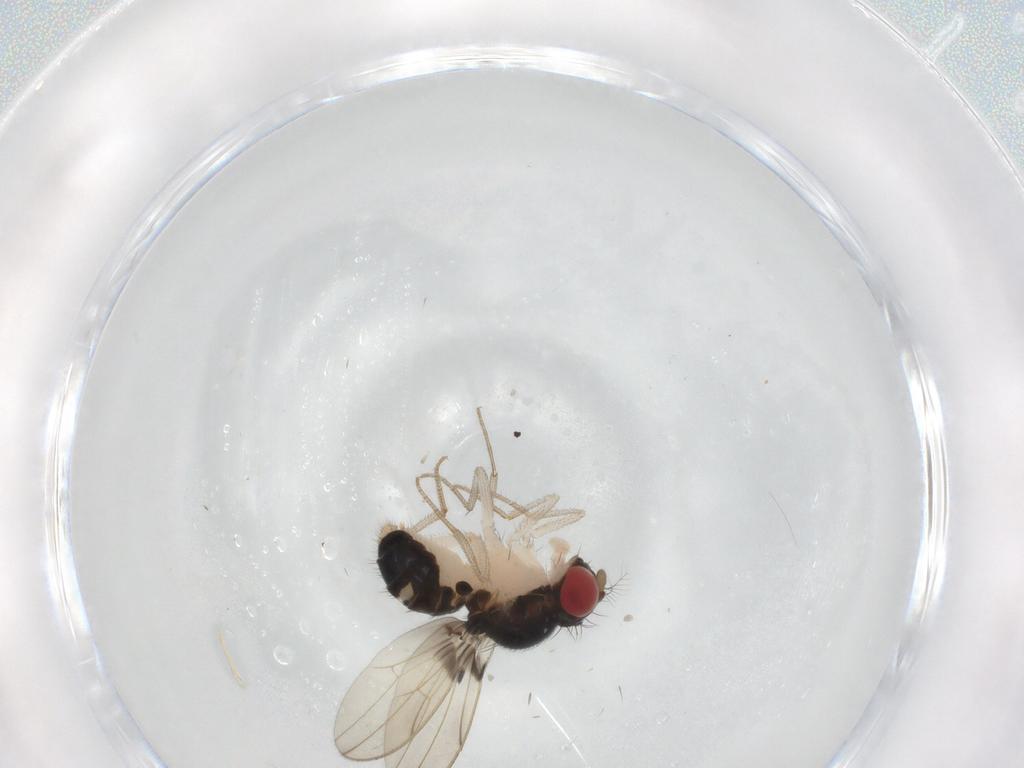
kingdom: Animalia
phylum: Arthropoda
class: Insecta
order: Diptera
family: Drosophilidae
